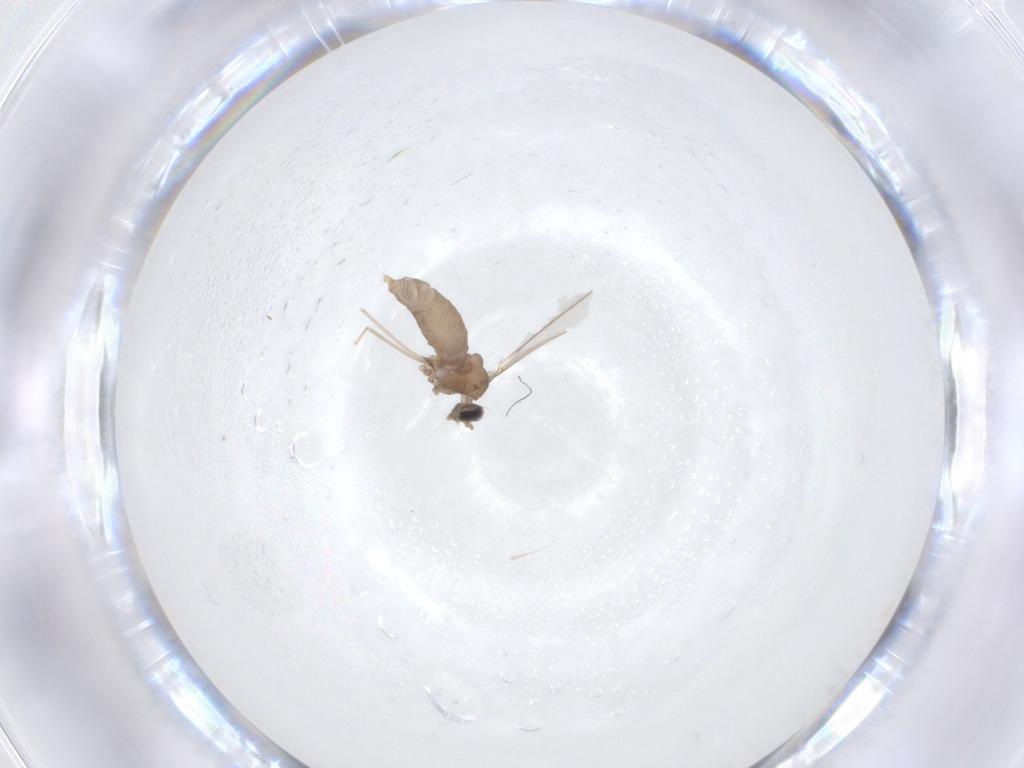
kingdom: Animalia
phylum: Arthropoda
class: Insecta
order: Diptera
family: Cecidomyiidae
